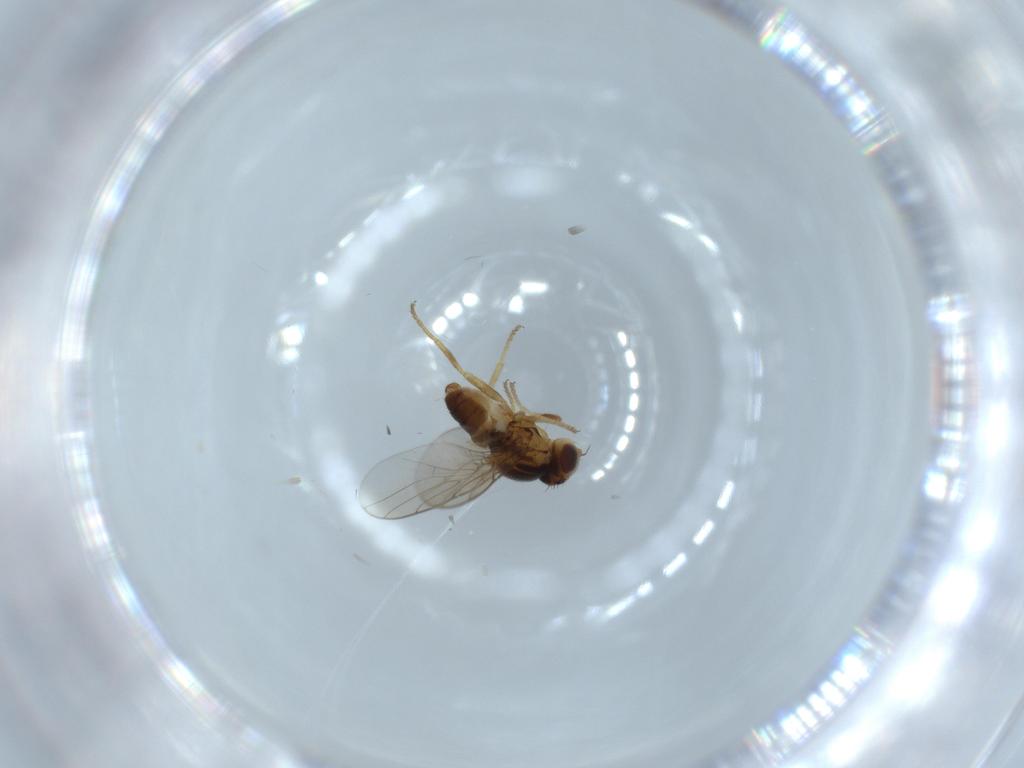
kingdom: Animalia
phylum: Arthropoda
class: Insecta
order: Diptera
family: Chloropidae
